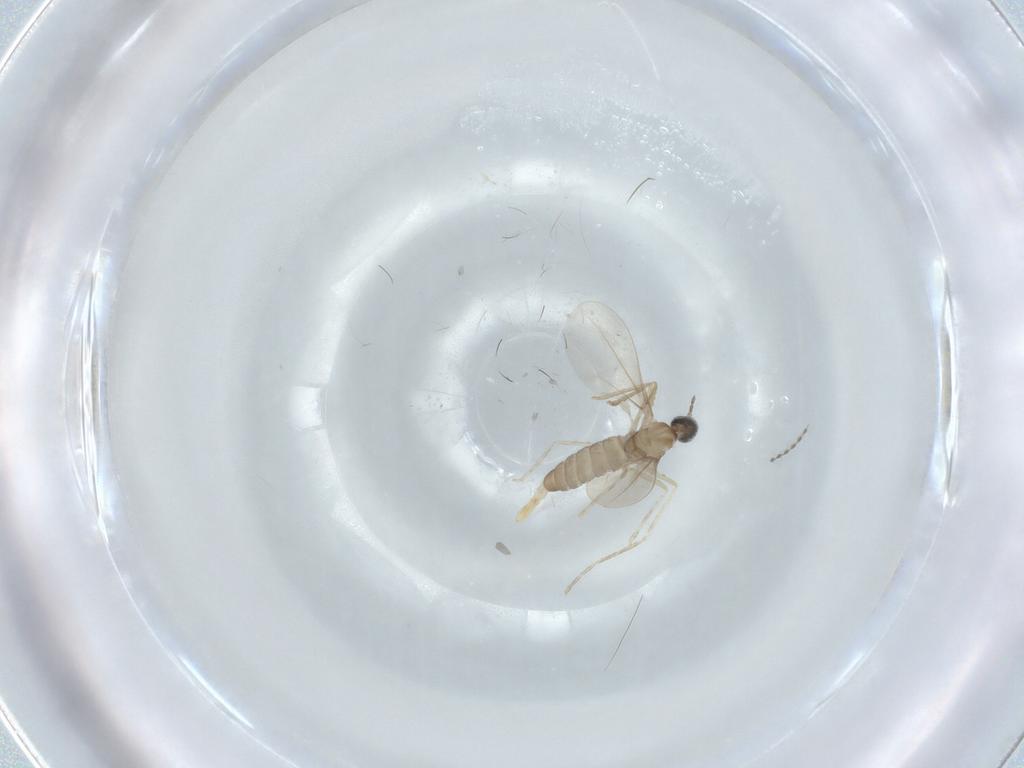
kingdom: Animalia
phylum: Arthropoda
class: Insecta
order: Diptera
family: Cecidomyiidae
